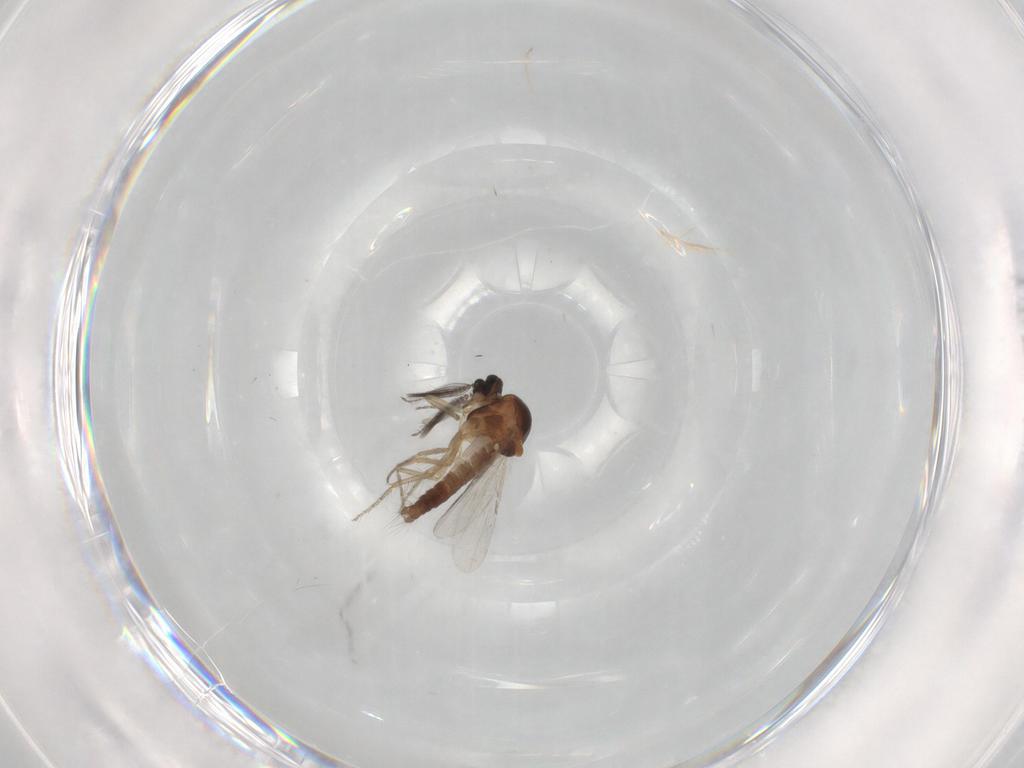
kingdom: Animalia
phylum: Arthropoda
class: Insecta
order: Diptera
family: Ceratopogonidae
